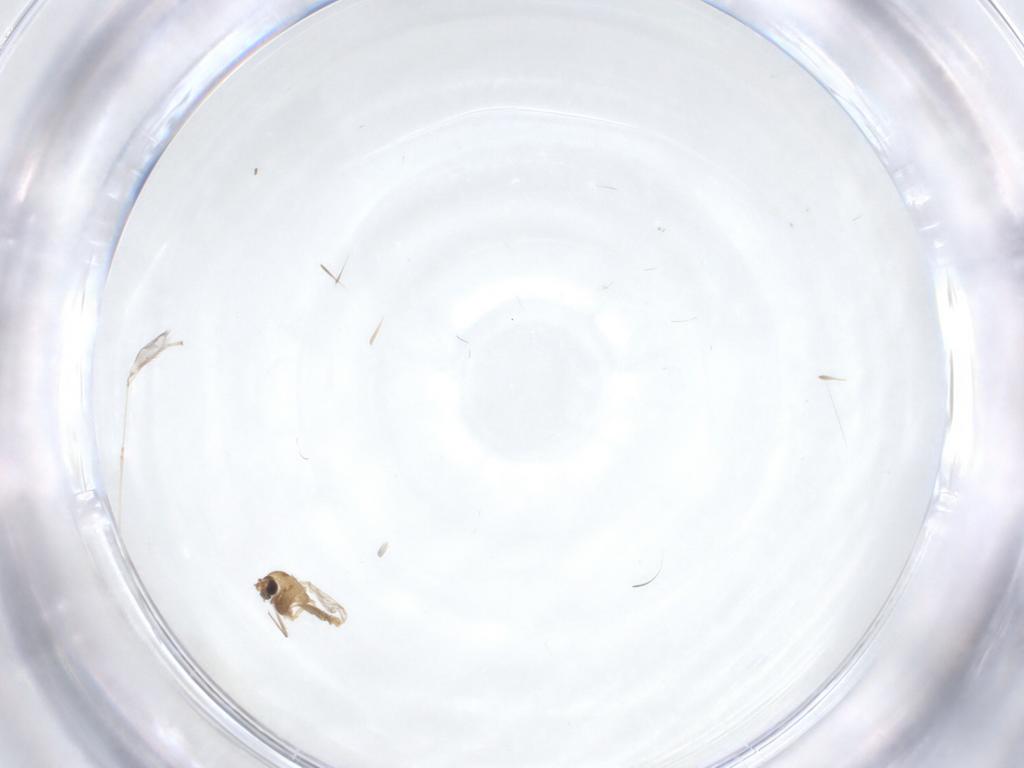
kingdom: Animalia
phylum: Arthropoda
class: Insecta
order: Diptera
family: Chironomidae
